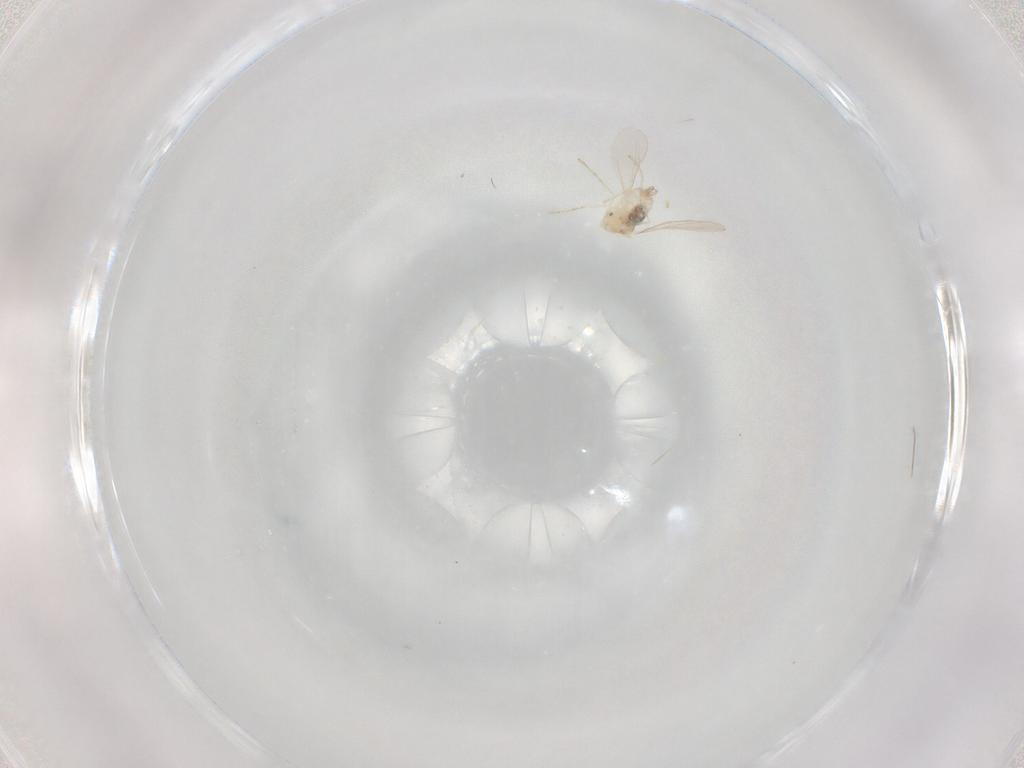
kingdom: Animalia
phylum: Arthropoda
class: Insecta
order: Diptera
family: Cecidomyiidae
